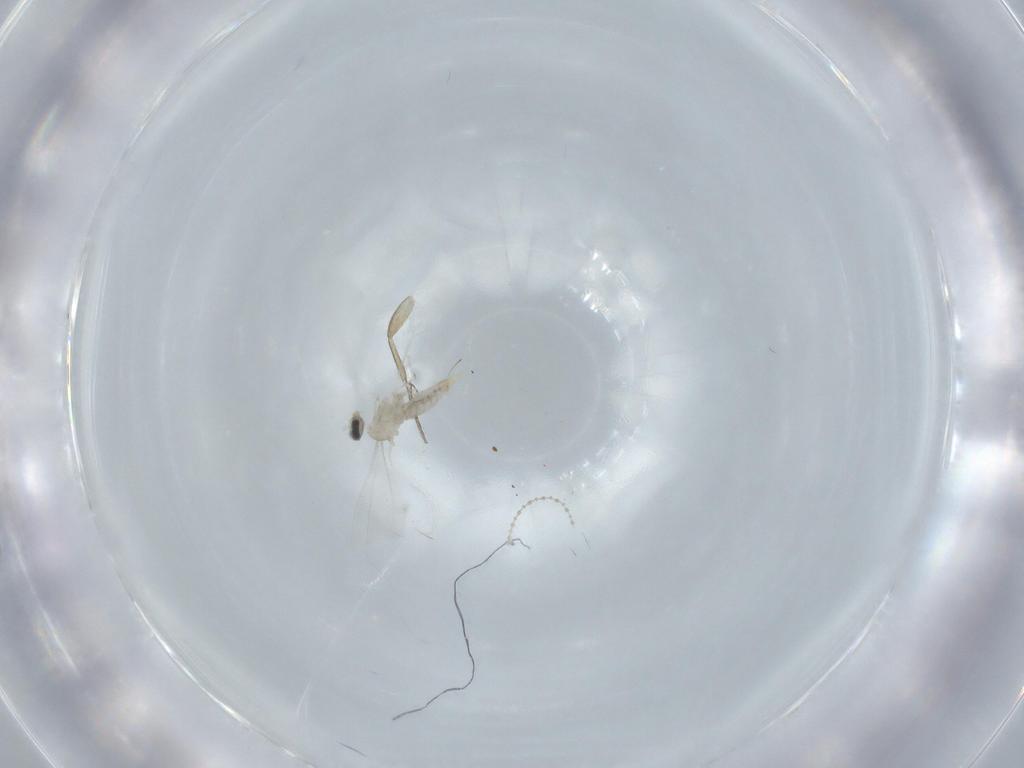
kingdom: Animalia
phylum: Arthropoda
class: Insecta
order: Diptera
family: Cecidomyiidae
